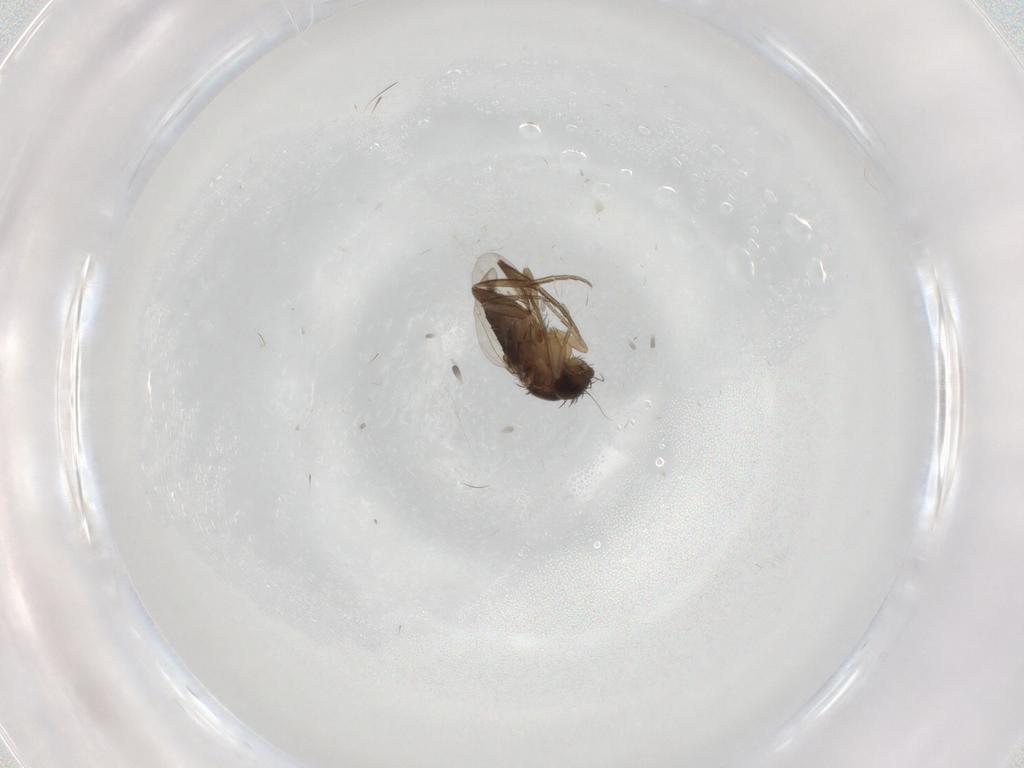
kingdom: Animalia
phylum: Arthropoda
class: Insecta
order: Diptera
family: Phoridae
